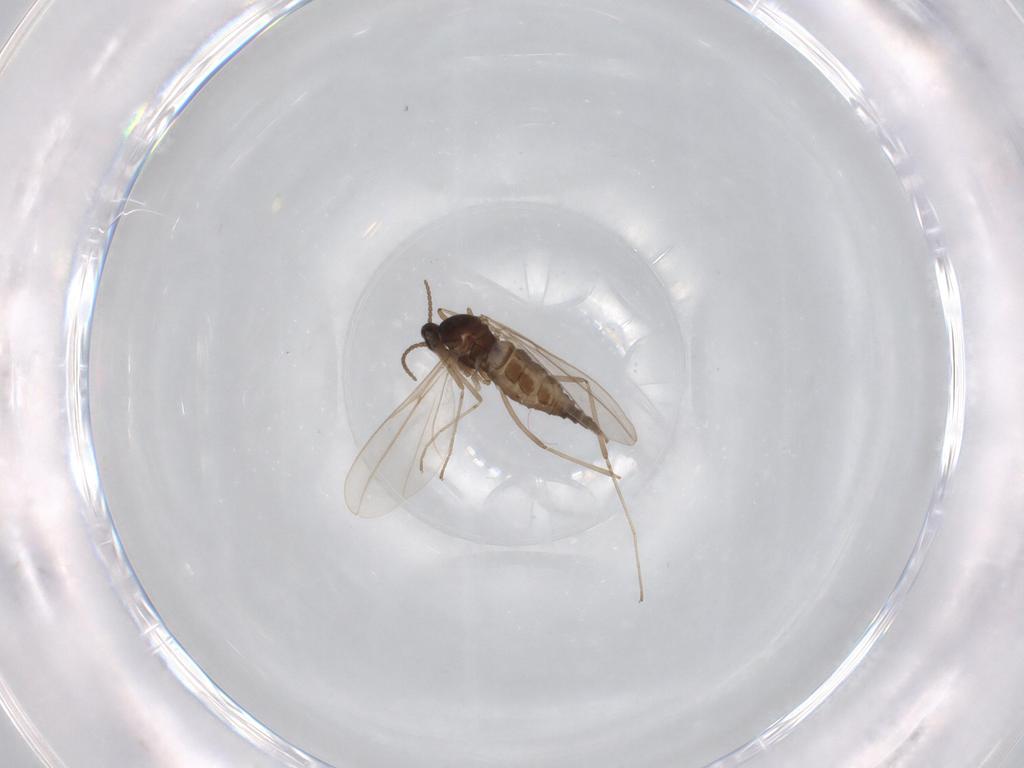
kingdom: Animalia
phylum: Arthropoda
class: Insecta
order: Diptera
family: Cecidomyiidae
